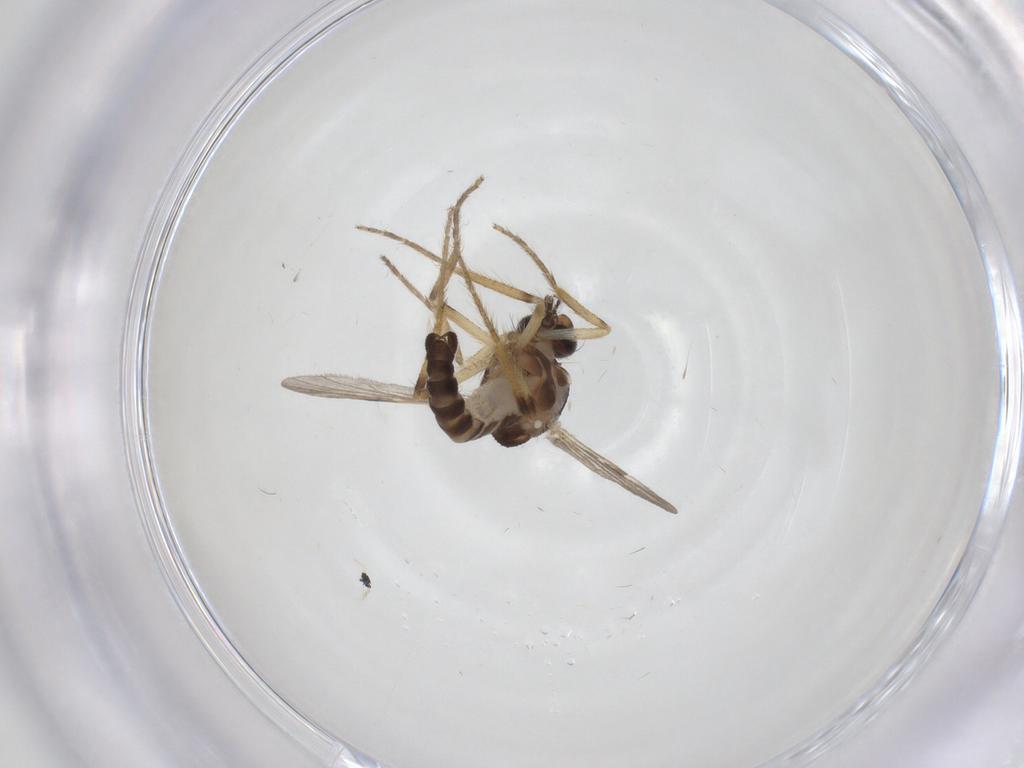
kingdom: Animalia
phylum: Arthropoda
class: Insecta
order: Diptera
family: Ceratopogonidae
